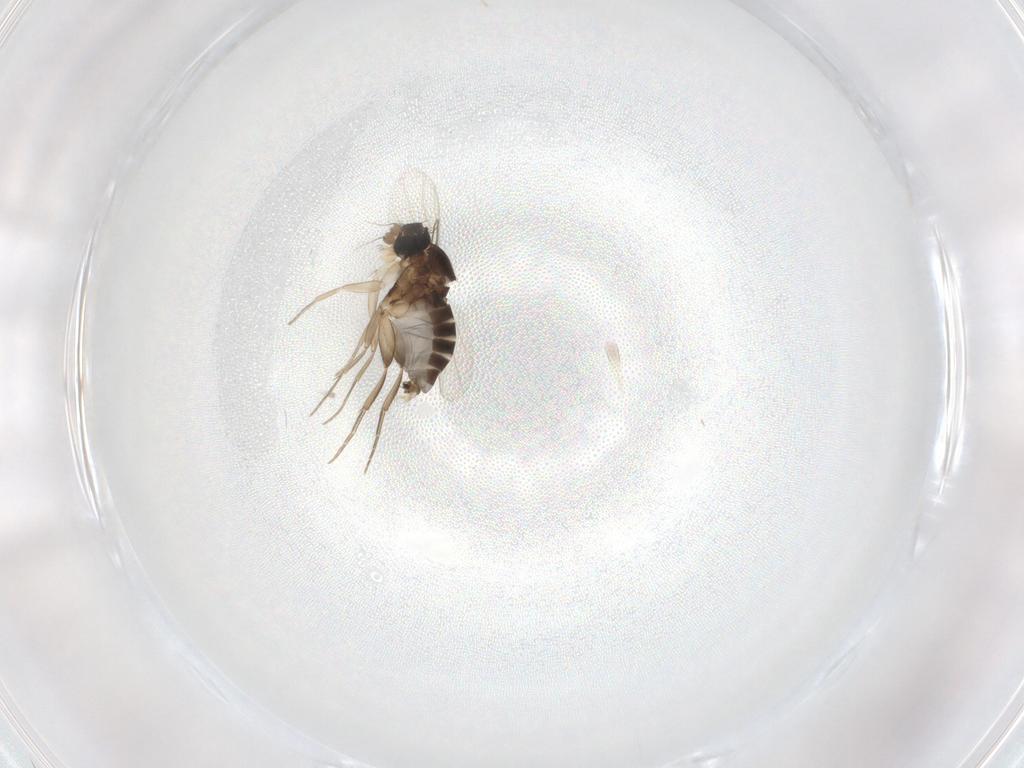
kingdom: Animalia
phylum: Arthropoda
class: Insecta
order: Diptera
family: Phoridae
